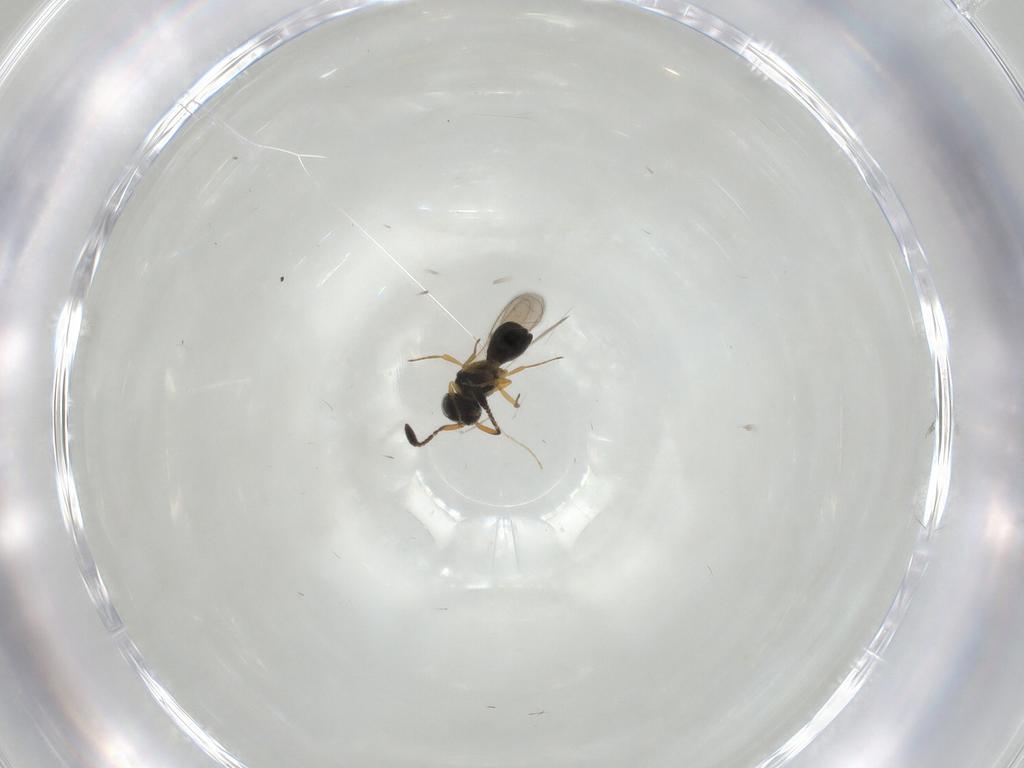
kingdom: Animalia
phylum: Arthropoda
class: Insecta
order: Hymenoptera
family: Scelionidae
